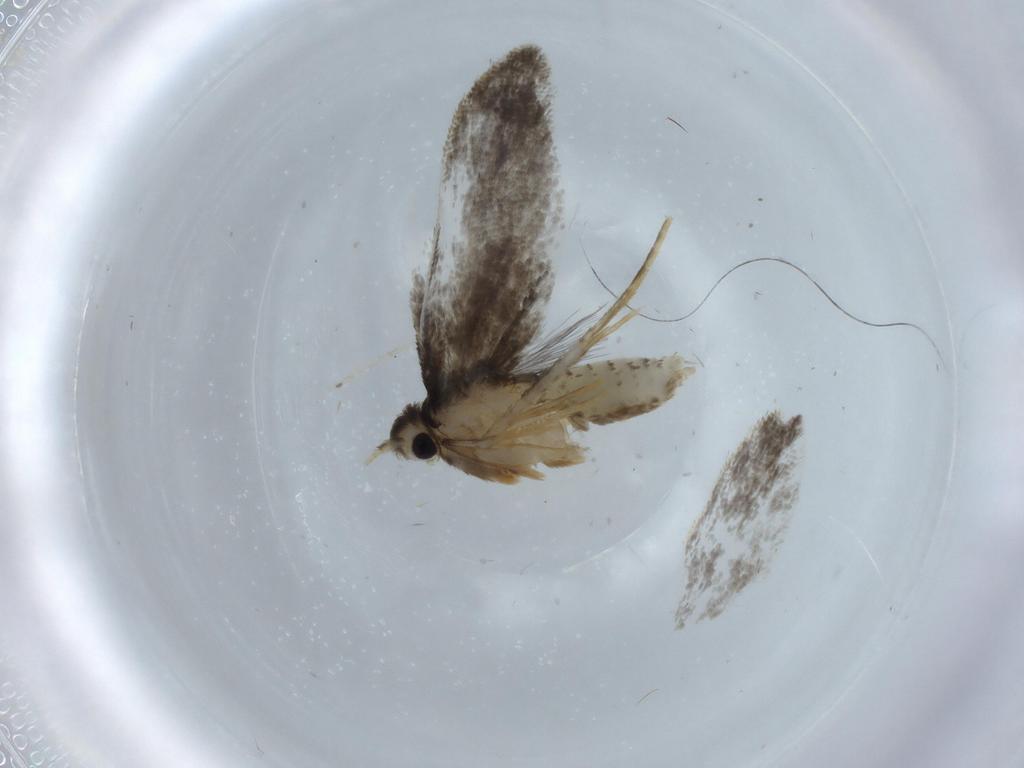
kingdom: Animalia
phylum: Arthropoda
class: Insecta
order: Lepidoptera
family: Psychidae
